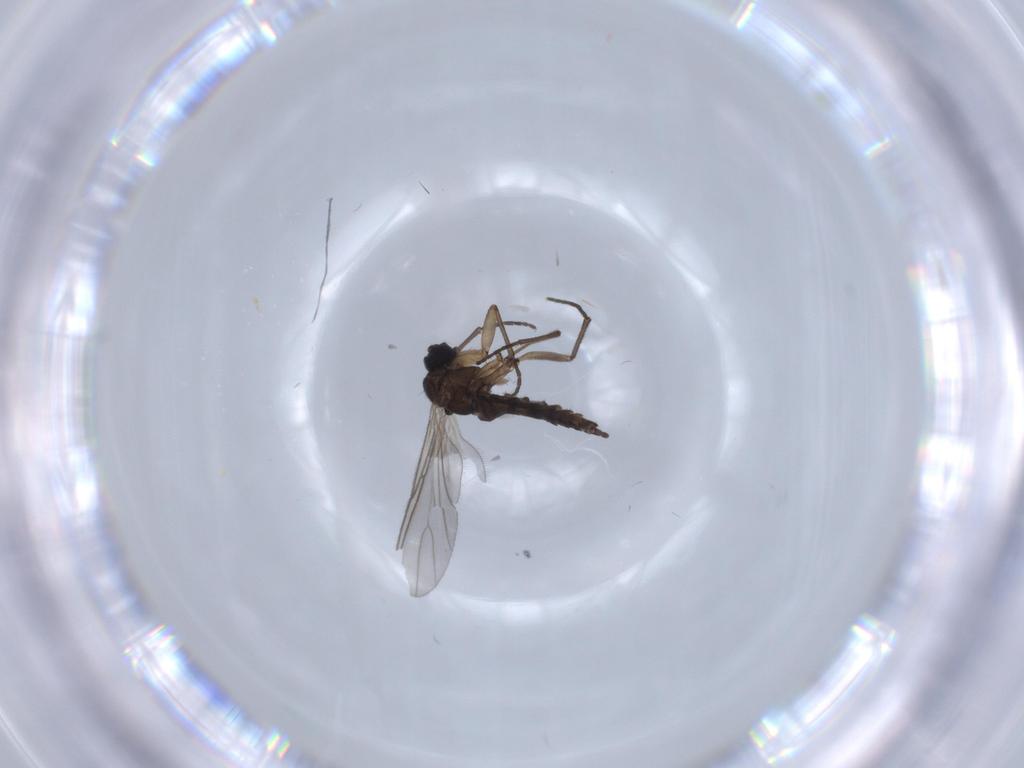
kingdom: Animalia
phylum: Arthropoda
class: Insecta
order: Diptera
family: Sciaridae
